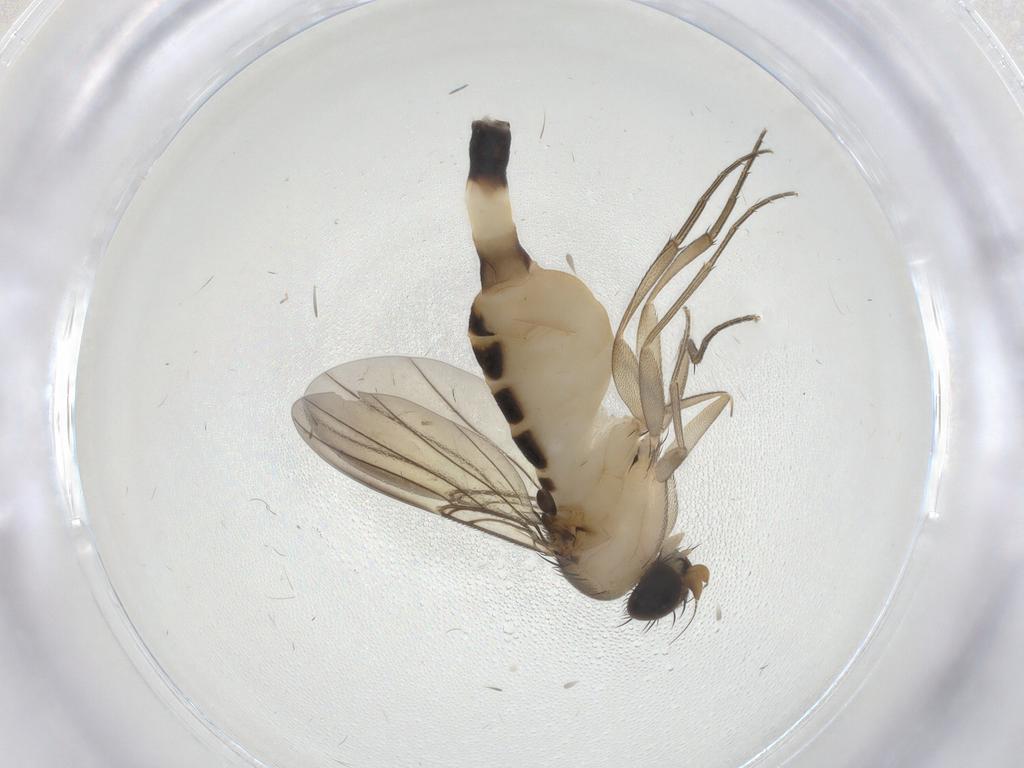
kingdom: Animalia
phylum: Arthropoda
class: Insecta
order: Diptera
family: Phoridae
